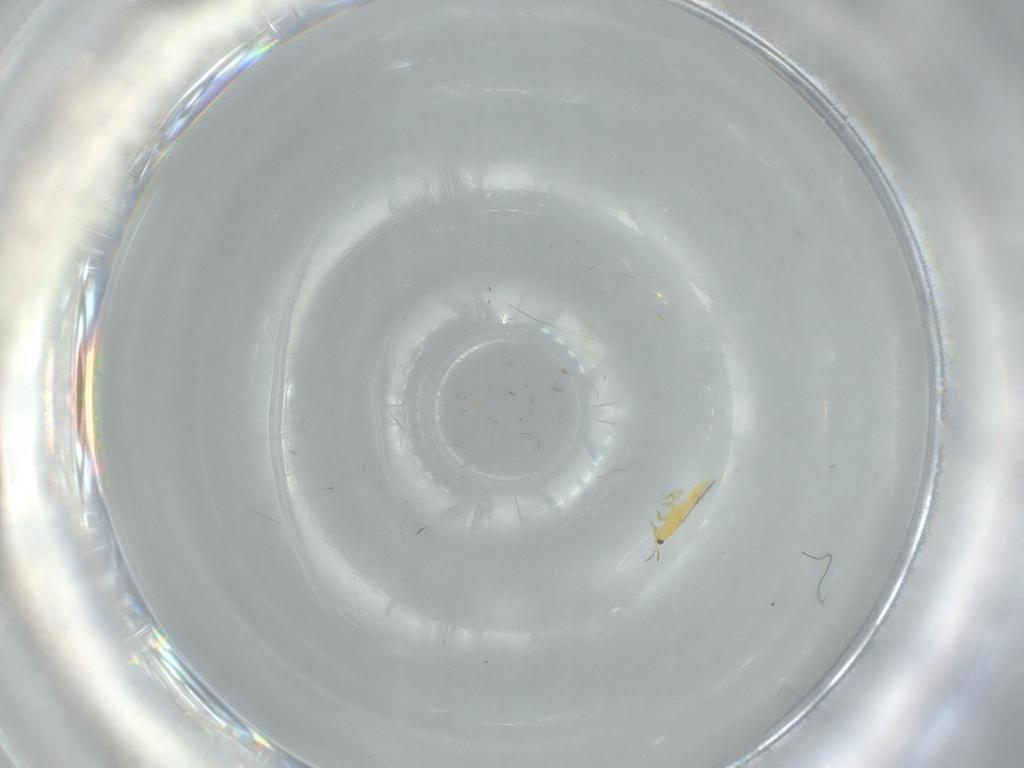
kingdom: Animalia
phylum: Arthropoda
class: Insecta
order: Thysanoptera
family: Thripidae
